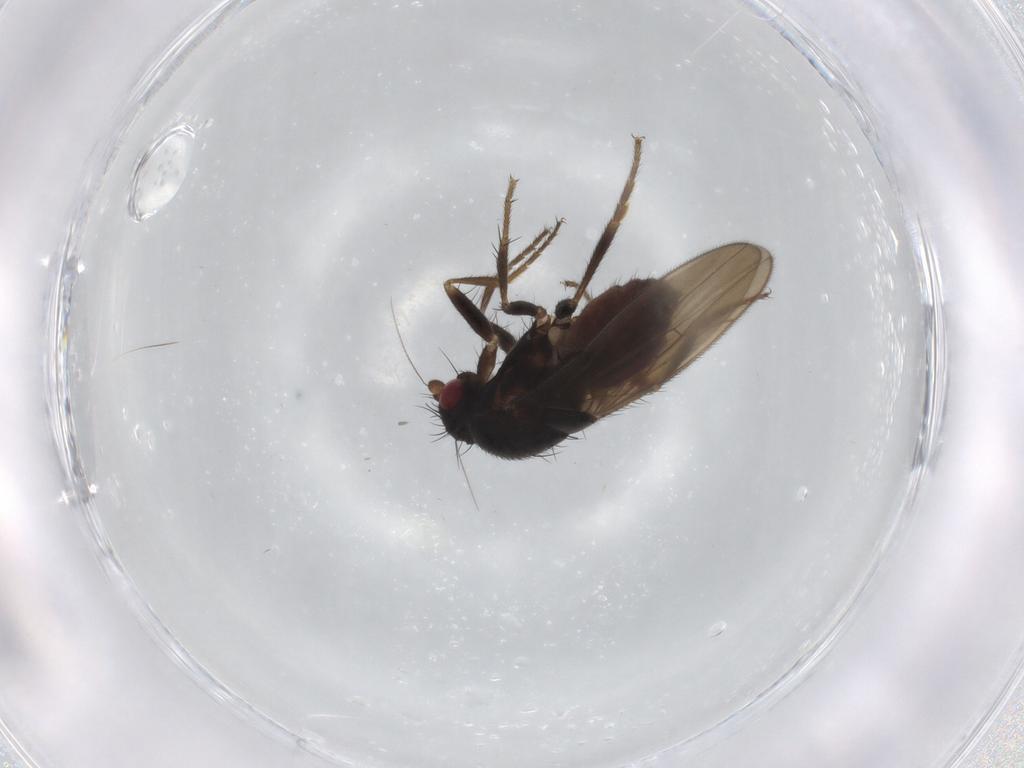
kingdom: Animalia
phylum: Arthropoda
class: Insecta
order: Diptera
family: Sphaeroceridae
